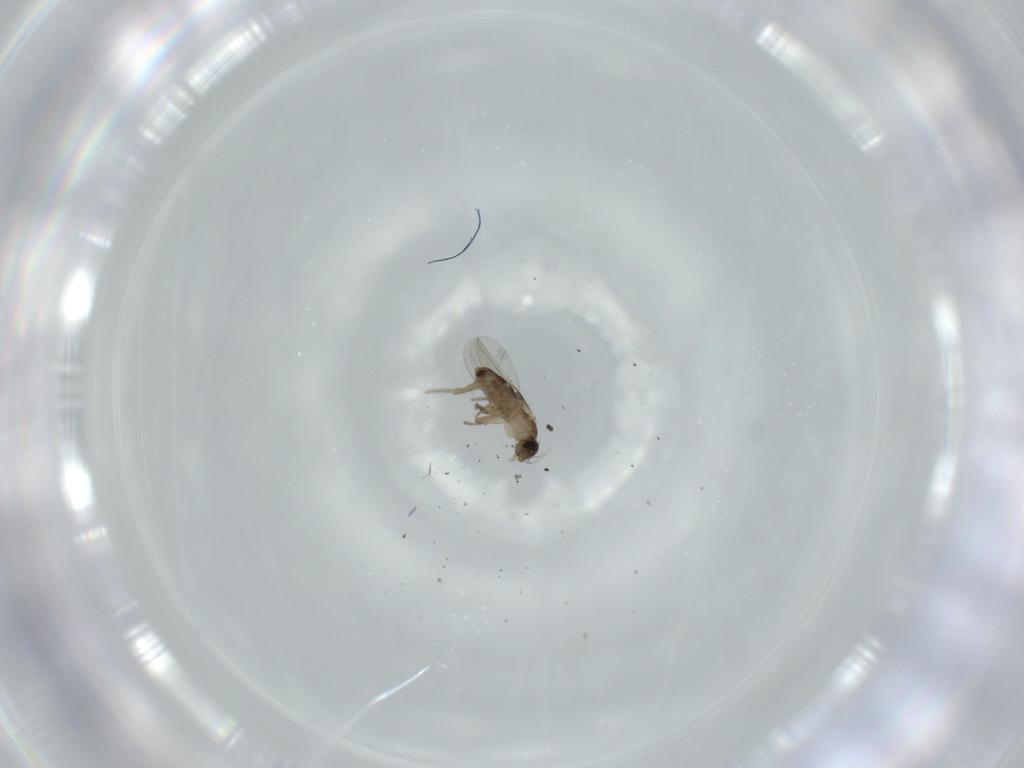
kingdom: Animalia
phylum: Arthropoda
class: Insecta
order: Diptera
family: Phoridae
